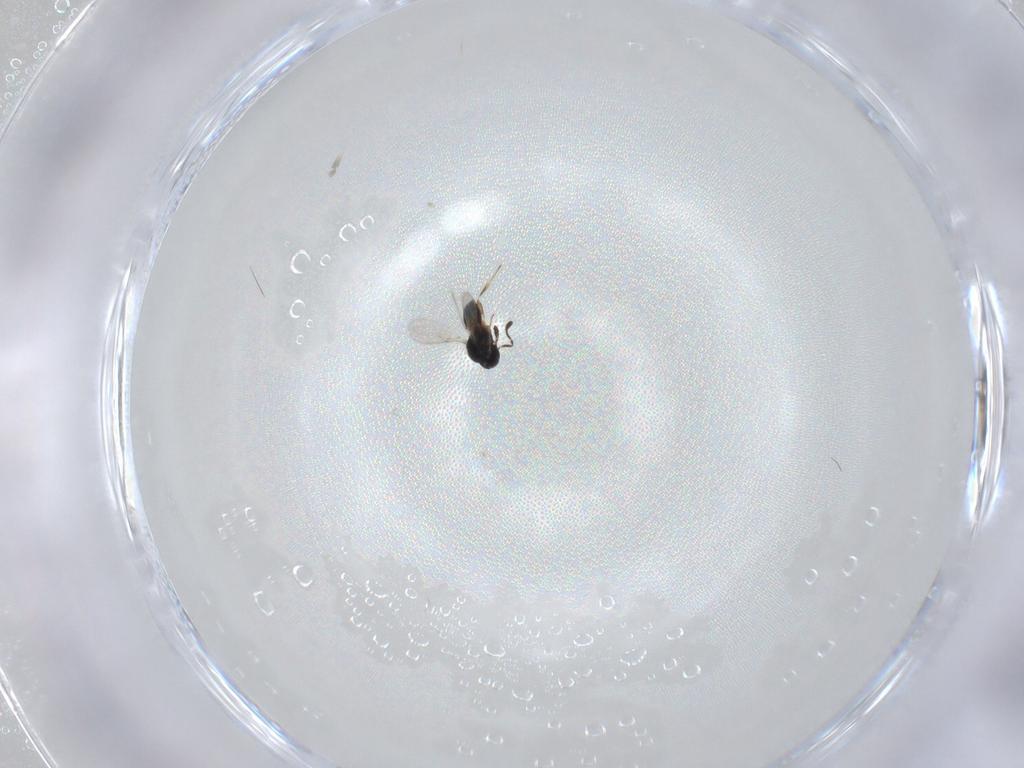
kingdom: Animalia
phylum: Arthropoda
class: Insecta
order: Hymenoptera
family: Scelionidae
